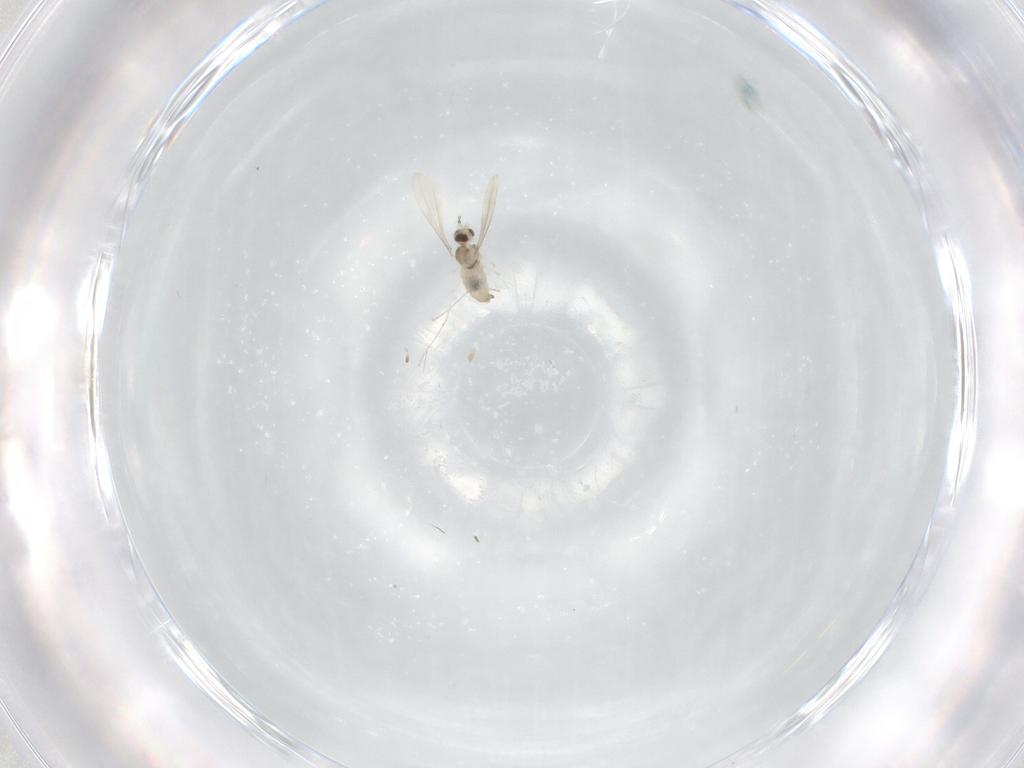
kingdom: Animalia
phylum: Arthropoda
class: Insecta
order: Diptera
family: Cecidomyiidae
